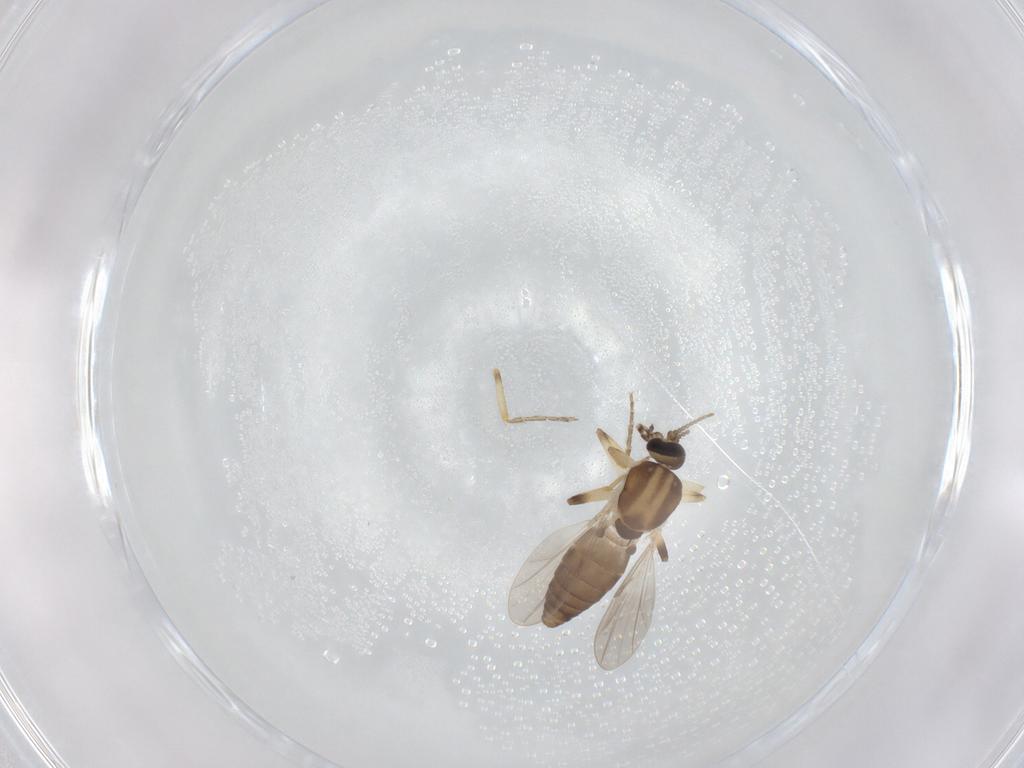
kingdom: Animalia
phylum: Arthropoda
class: Insecta
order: Diptera
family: Ceratopogonidae
